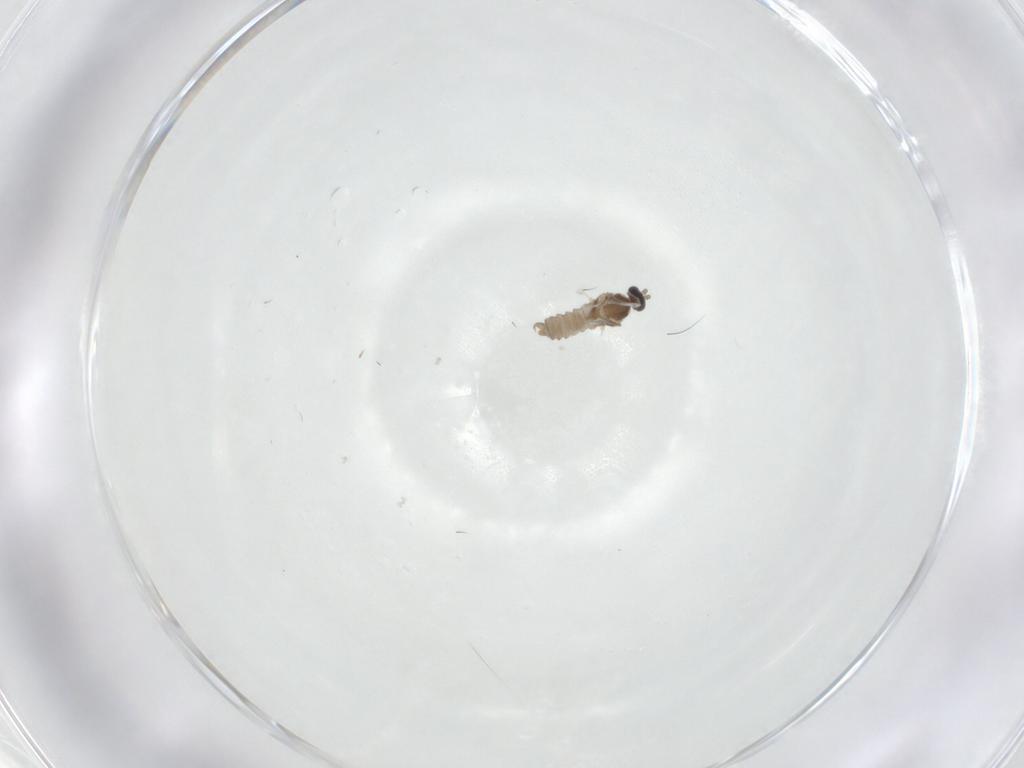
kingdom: Animalia
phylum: Arthropoda
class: Insecta
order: Diptera
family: Cecidomyiidae
